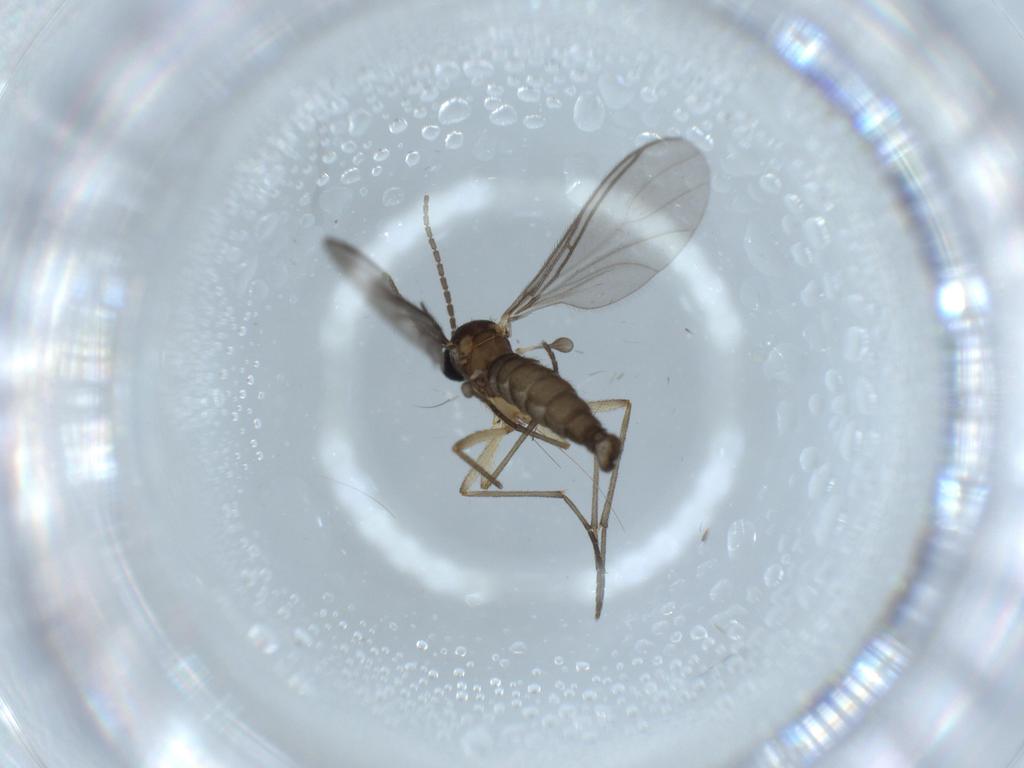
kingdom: Animalia
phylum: Arthropoda
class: Insecta
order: Diptera
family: Sciaridae
